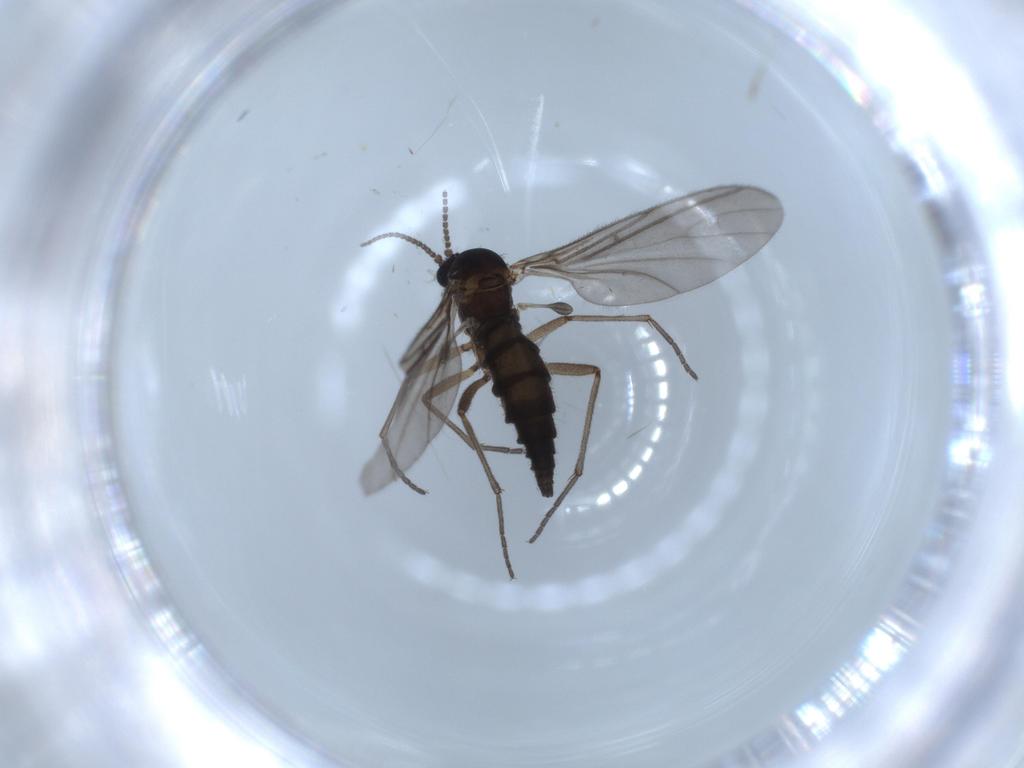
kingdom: Animalia
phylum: Arthropoda
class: Insecta
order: Diptera
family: Sciaridae
